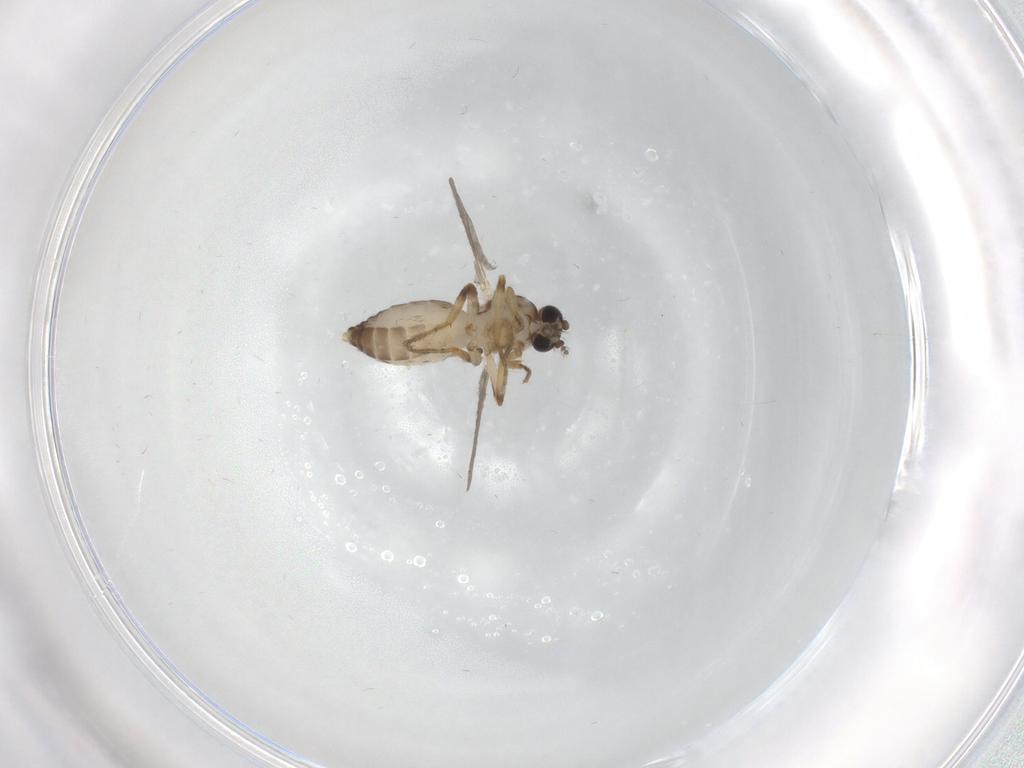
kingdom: Animalia
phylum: Arthropoda
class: Insecta
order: Diptera
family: Ceratopogonidae
